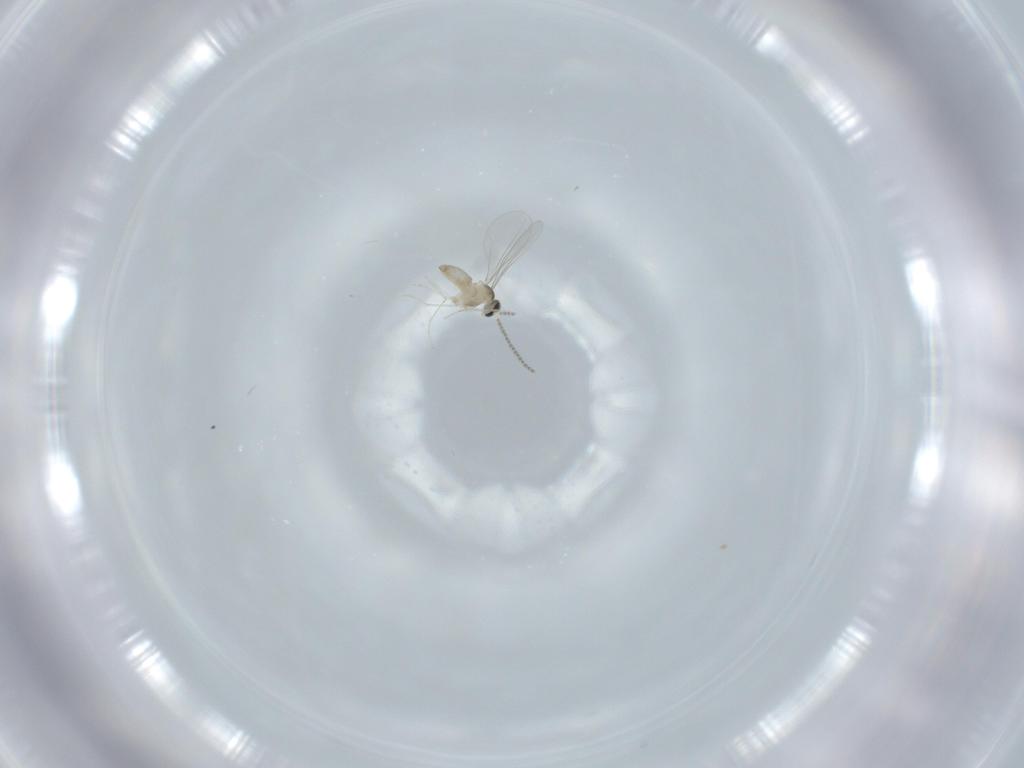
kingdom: Animalia
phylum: Arthropoda
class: Insecta
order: Diptera
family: Cecidomyiidae
